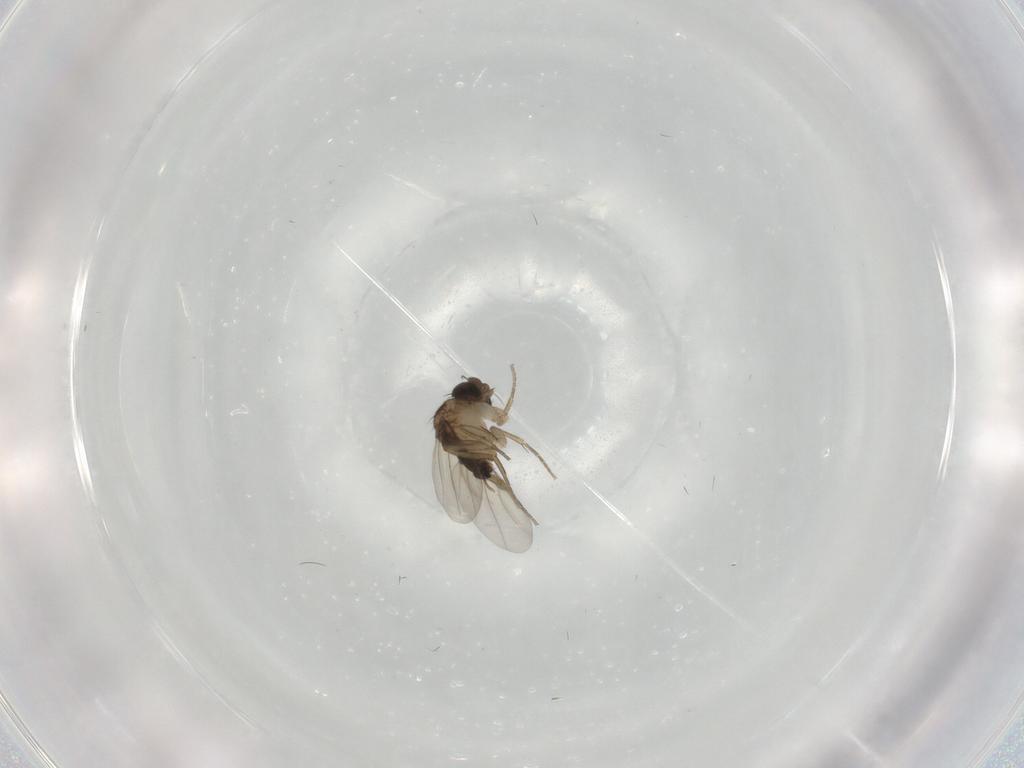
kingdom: Animalia
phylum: Arthropoda
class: Insecta
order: Diptera
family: Phoridae
